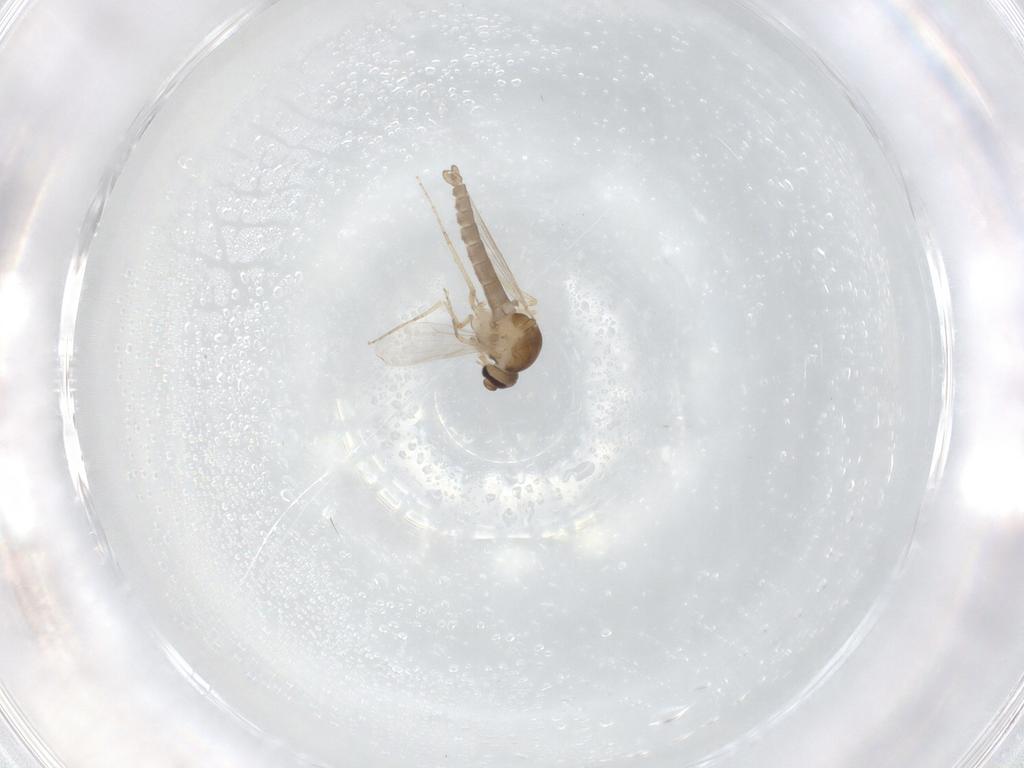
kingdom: Animalia
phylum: Arthropoda
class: Insecta
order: Diptera
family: Ceratopogonidae
